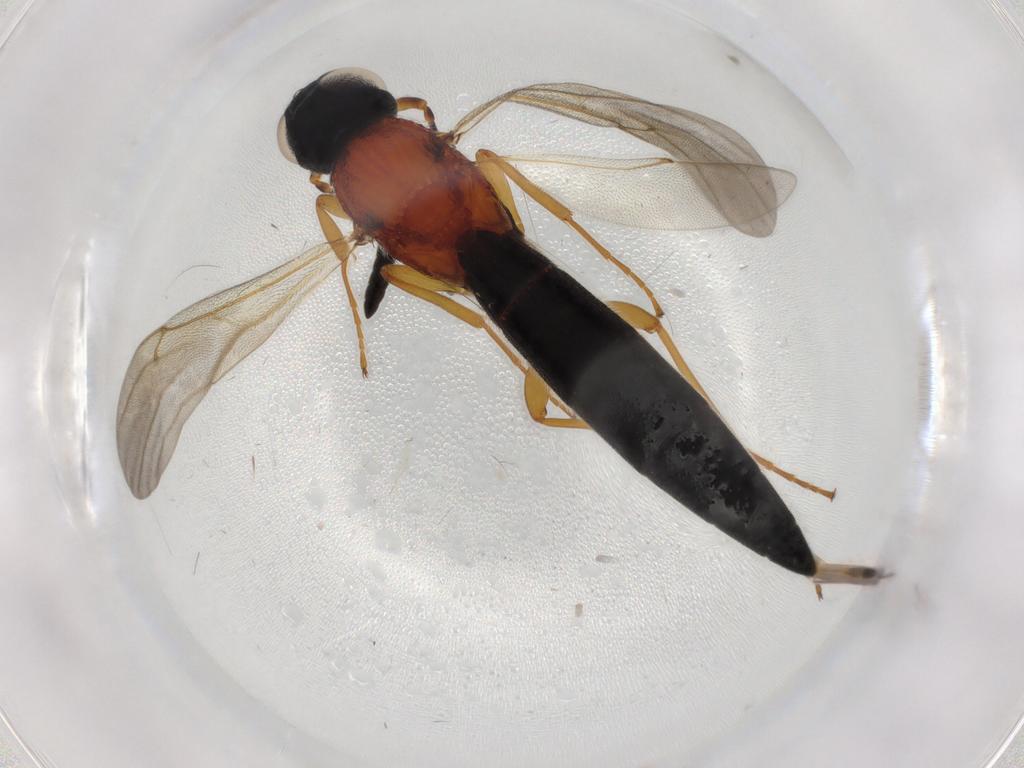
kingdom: Animalia
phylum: Arthropoda
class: Insecta
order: Hymenoptera
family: Scelionidae
